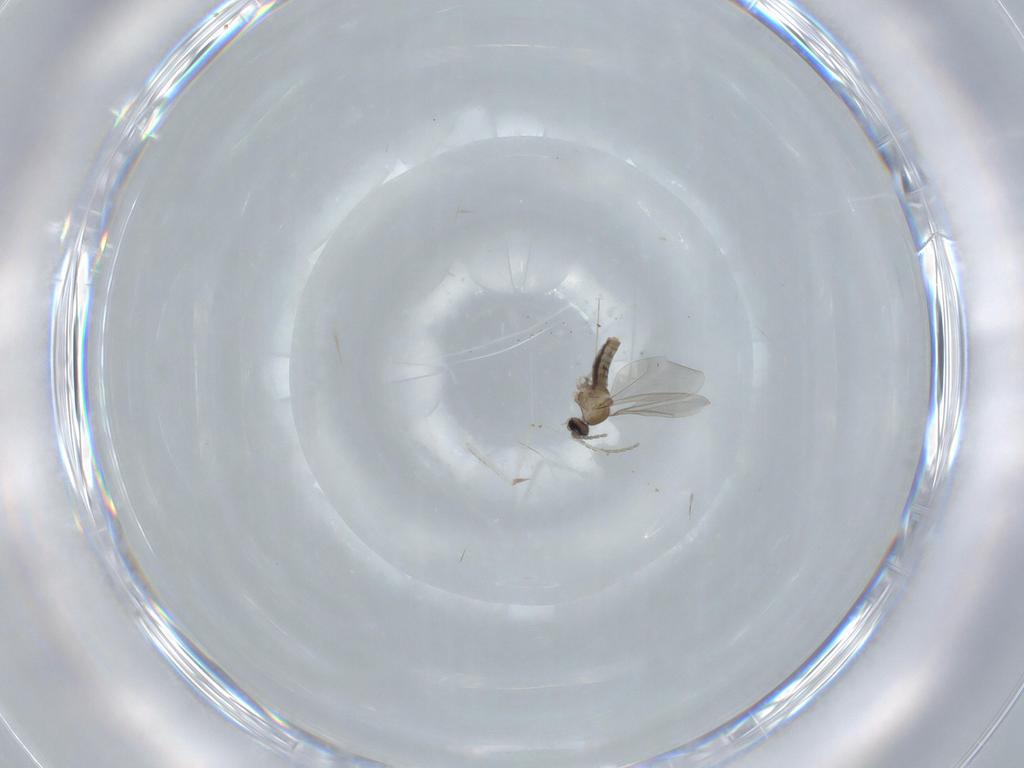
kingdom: Animalia
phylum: Arthropoda
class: Insecta
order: Diptera
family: Cecidomyiidae
